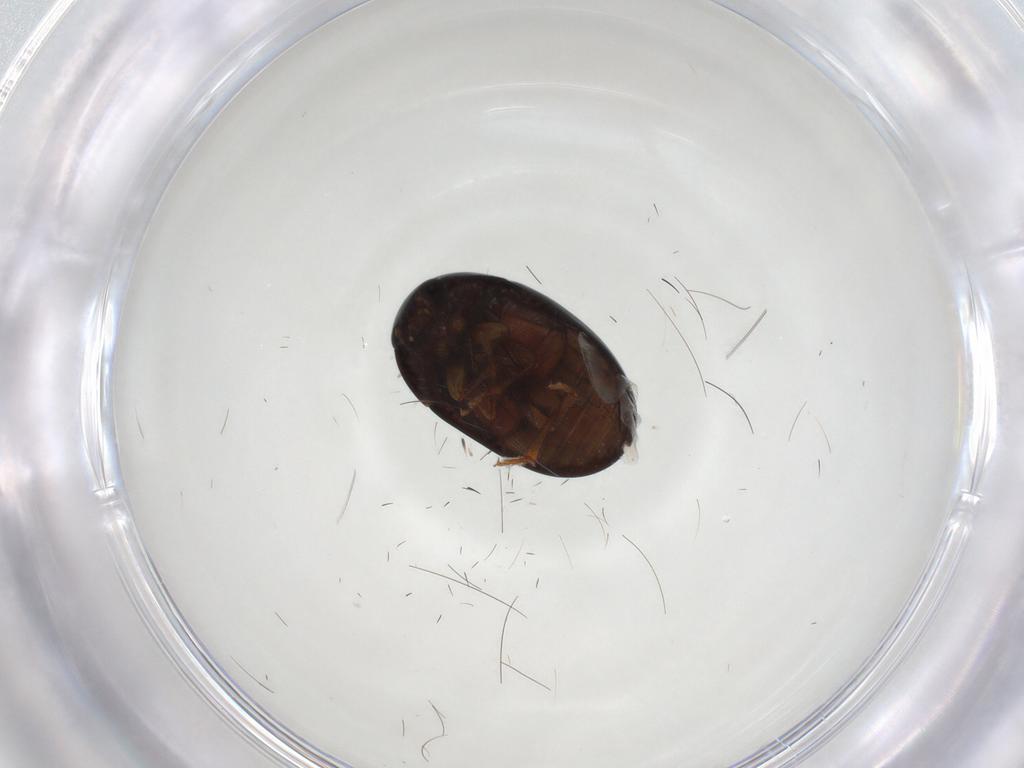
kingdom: Animalia
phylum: Arthropoda
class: Insecta
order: Coleoptera
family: Phalacridae
